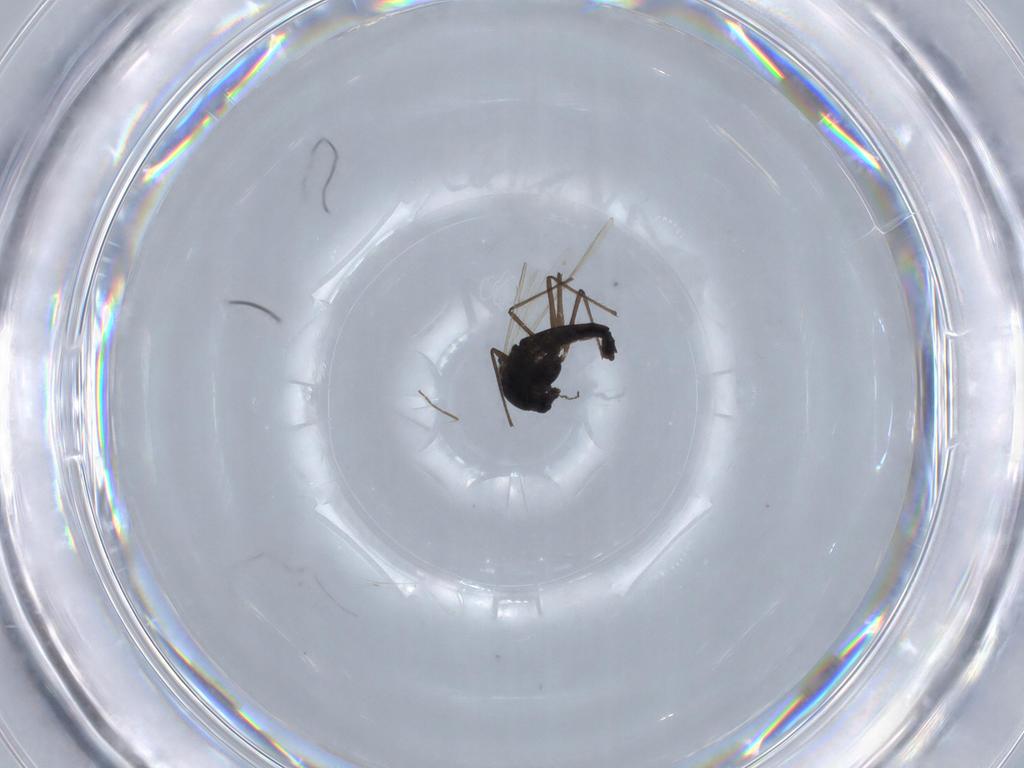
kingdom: Animalia
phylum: Arthropoda
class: Insecta
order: Diptera
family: Chironomidae
